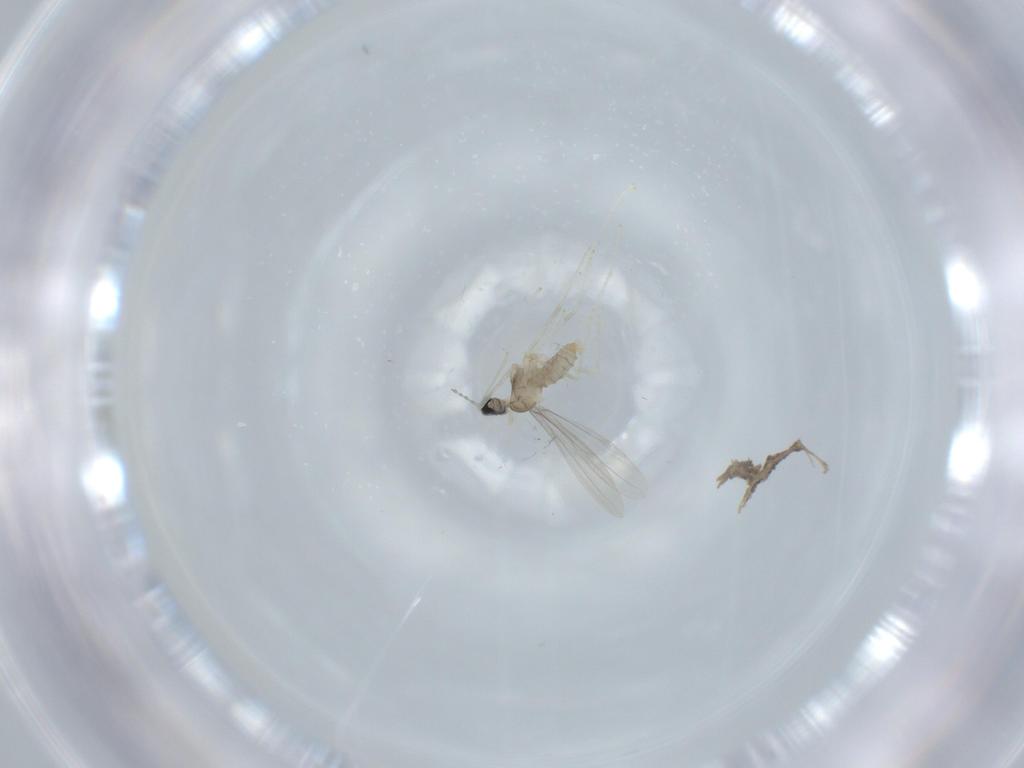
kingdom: Animalia
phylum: Arthropoda
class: Insecta
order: Diptera
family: Cecidomyiidae
